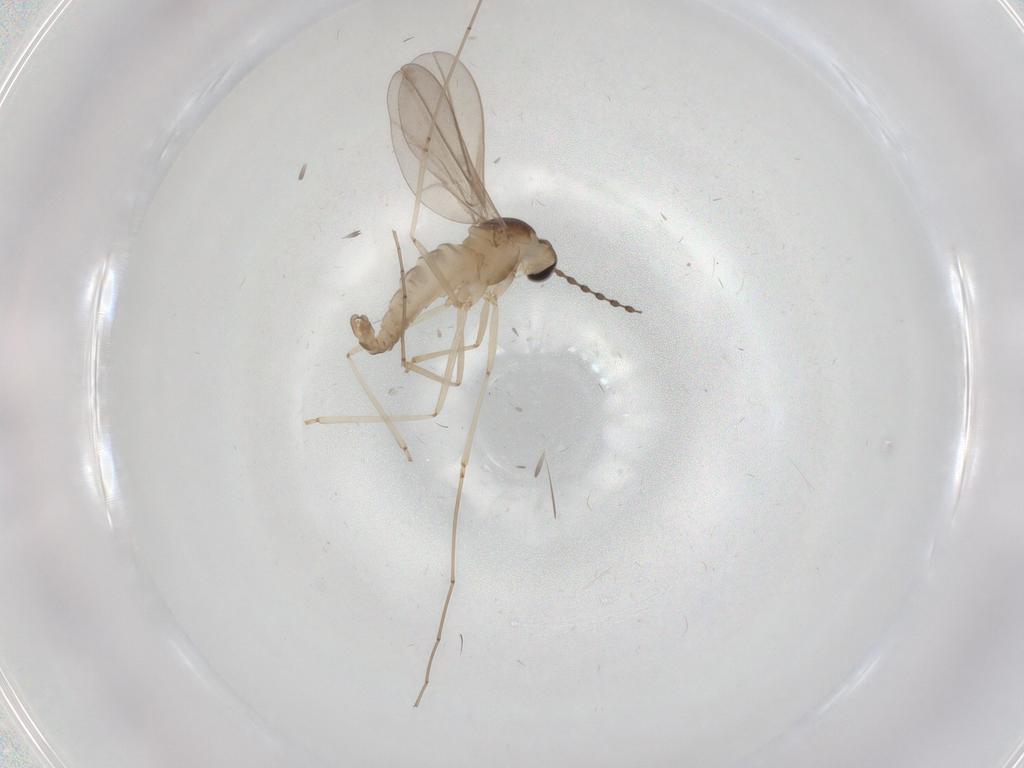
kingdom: Animalia
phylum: Arthropoda
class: Insecta
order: Diptera
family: Cecidomyiidae
